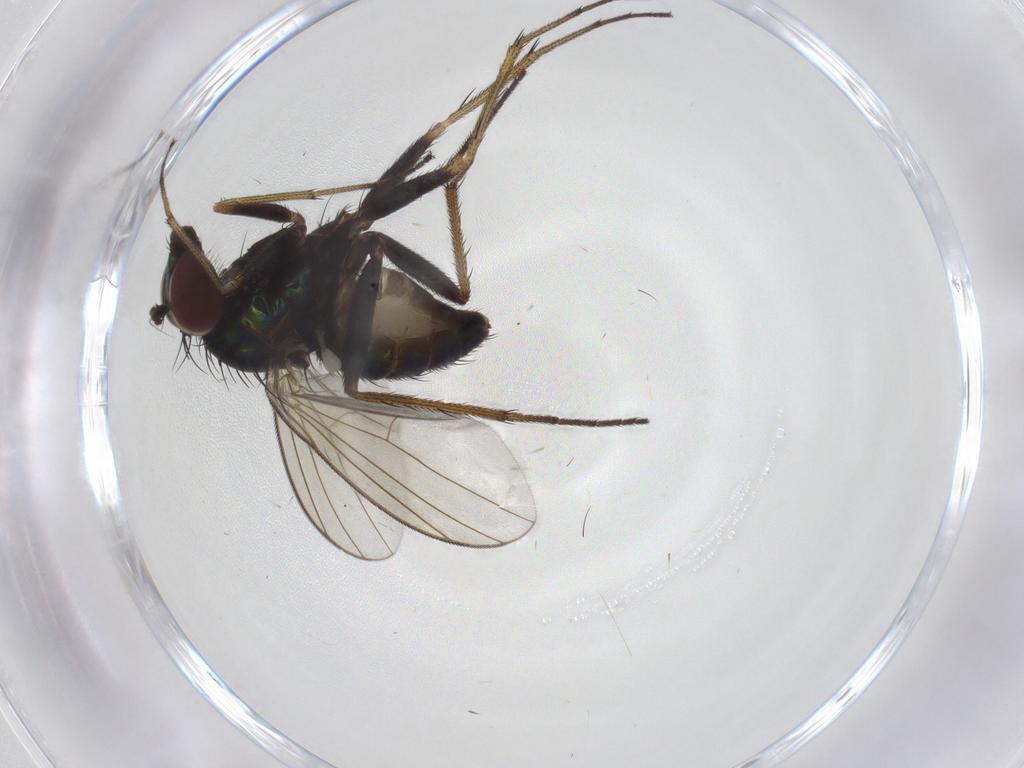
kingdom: Animalia
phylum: Arthropoda
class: Insecta
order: Diptera
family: Dolichopodidae
